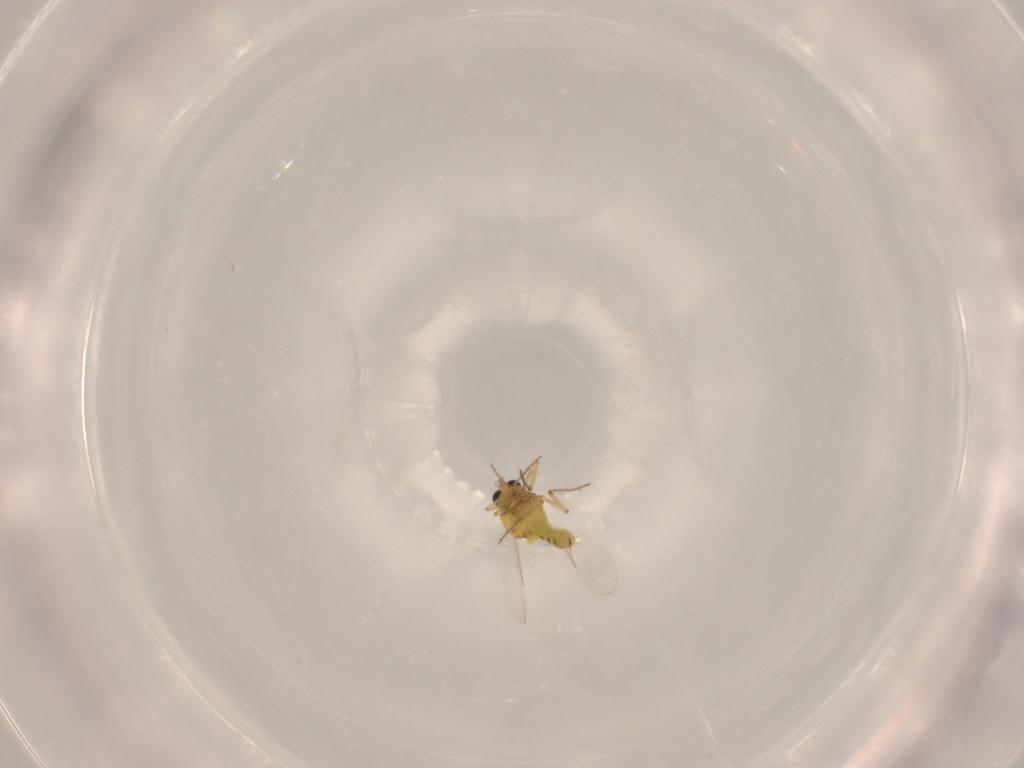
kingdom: Animalia
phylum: Arthropoda
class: Insecta
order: Diptera
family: Ceratopogonidae
